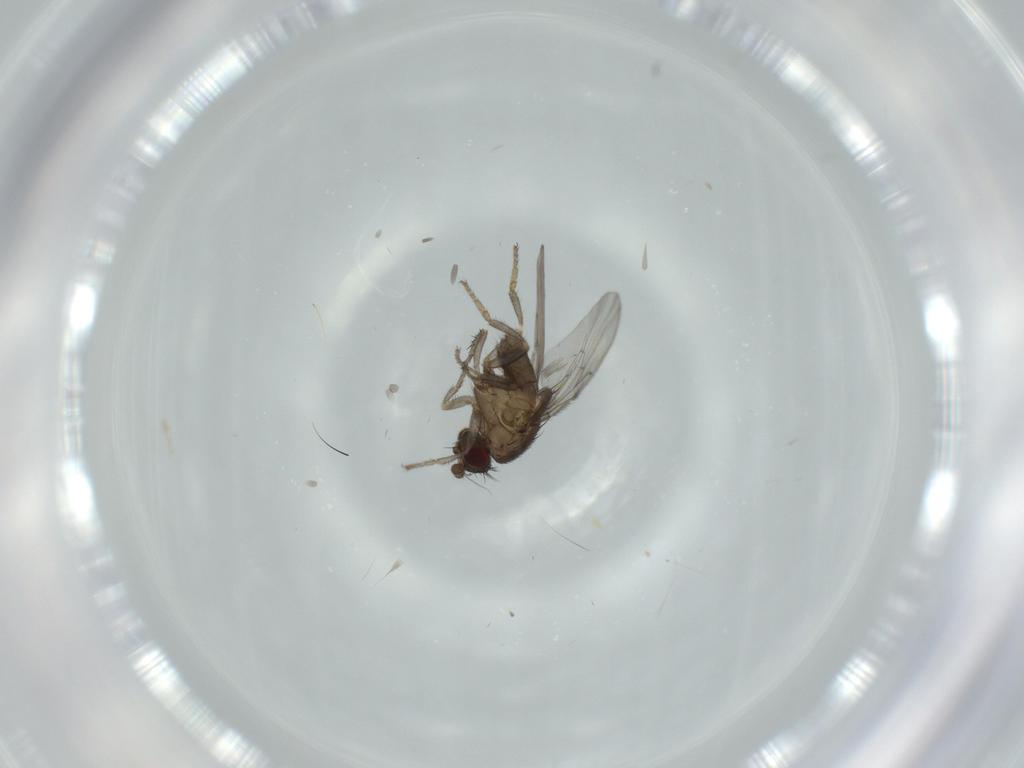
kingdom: Animalia
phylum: Arthropoda
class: Insecta
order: Diptera
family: Sphaeroceridae
